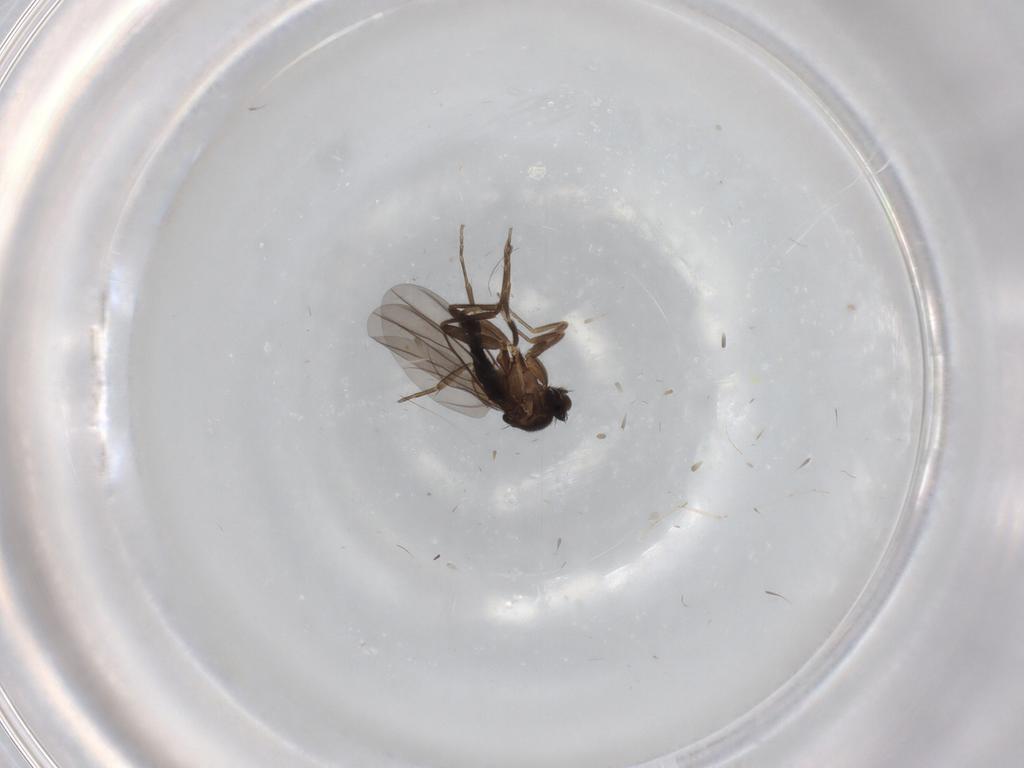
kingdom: Animalia
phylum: Arthropoda
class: Insecta
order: Diptera
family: Cecidomyiidae
